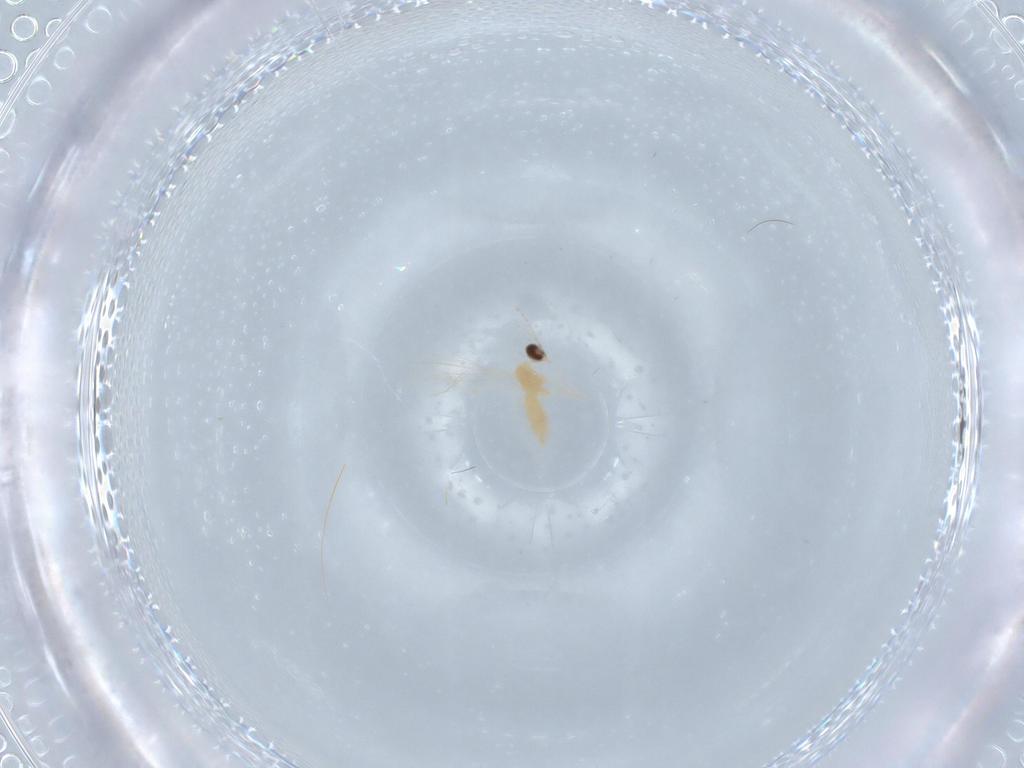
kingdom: Animalia
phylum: Arthropoda
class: Insecta
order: Diptera
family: Cecidomyiidae
